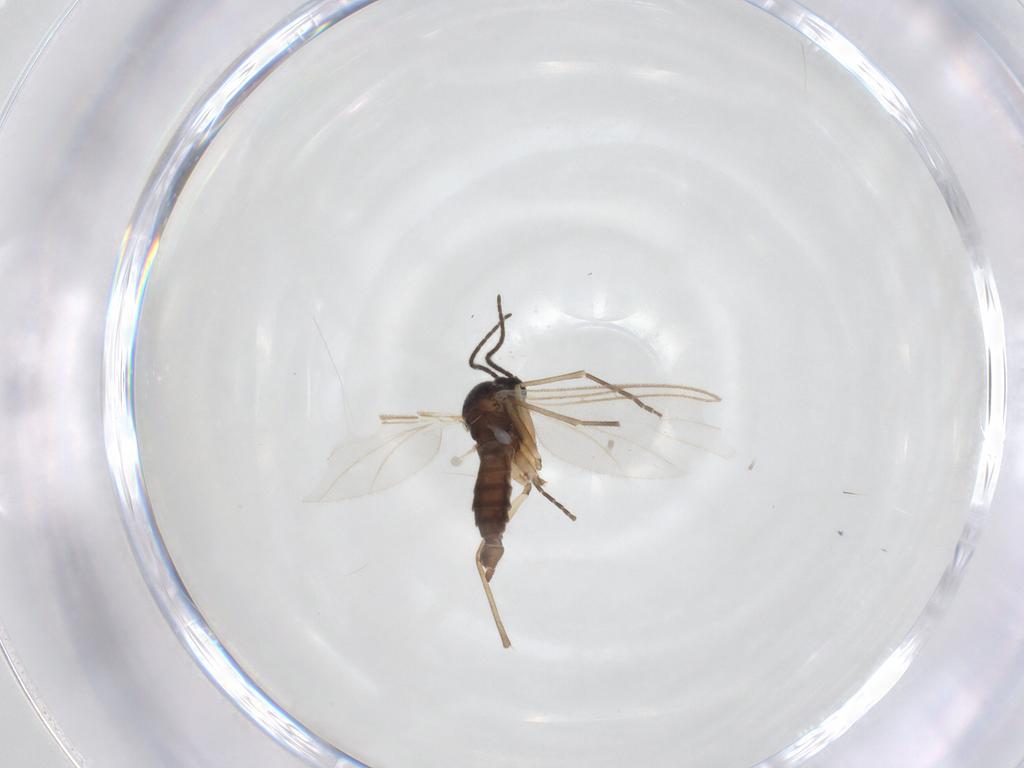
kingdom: Animalia
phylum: Arthropoda
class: Insecta
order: Diptera
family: Sciaridae
